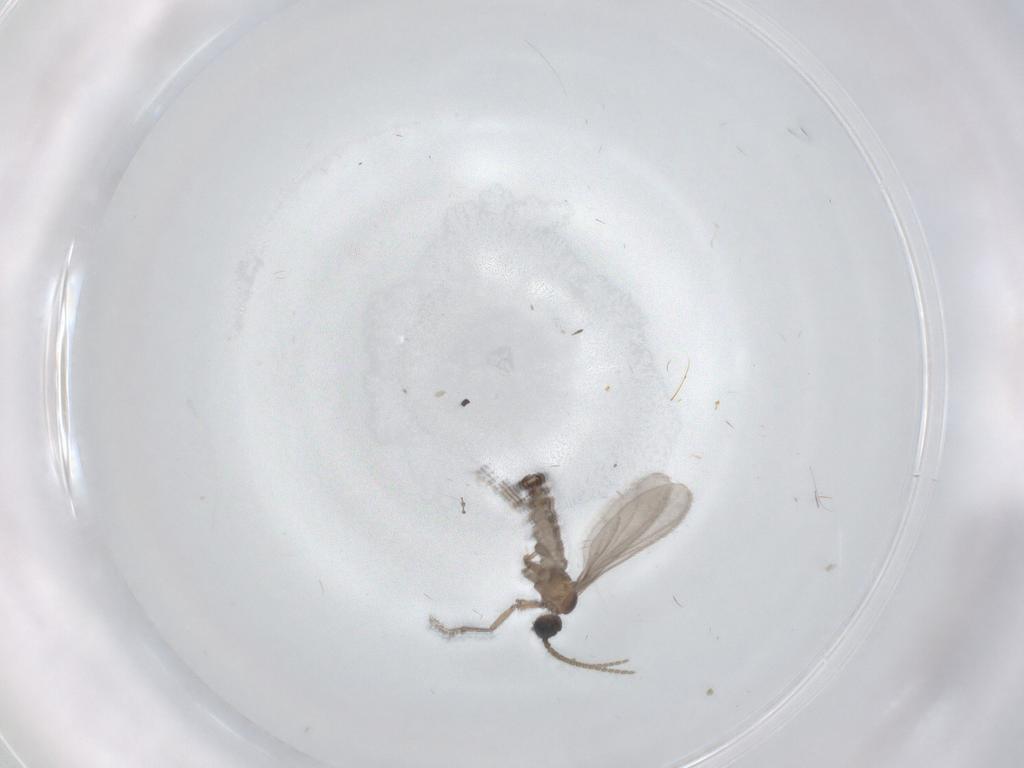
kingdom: Animalia
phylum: Arthropoda
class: Insecta
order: Diptera
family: Sciaridae
